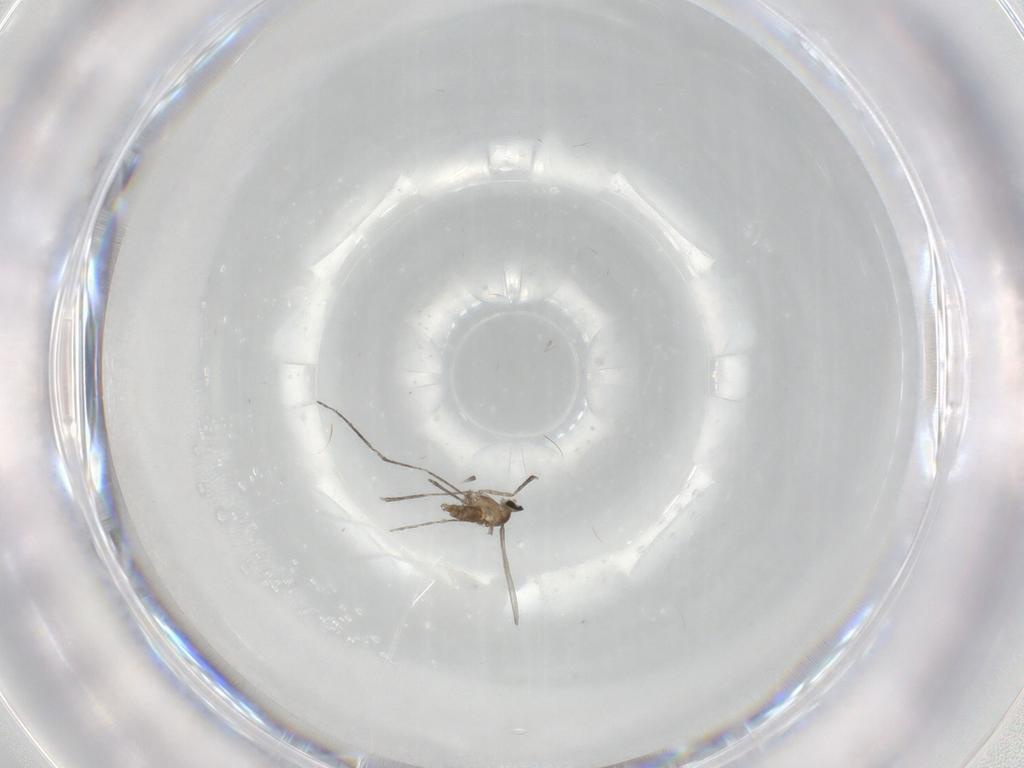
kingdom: Animalia
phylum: Arthropoda
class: Insecta
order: Diptera
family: Cecidomyiidae
